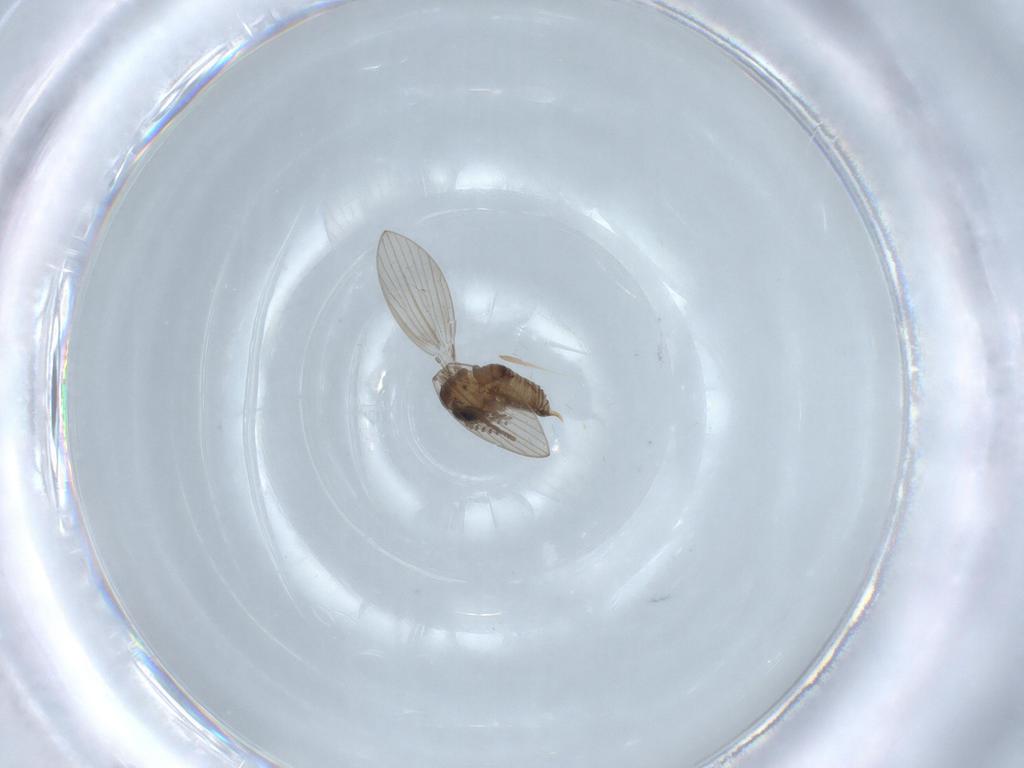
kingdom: Animalia
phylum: Arthropoda
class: Insecta
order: Diptera
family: Psychodidae
